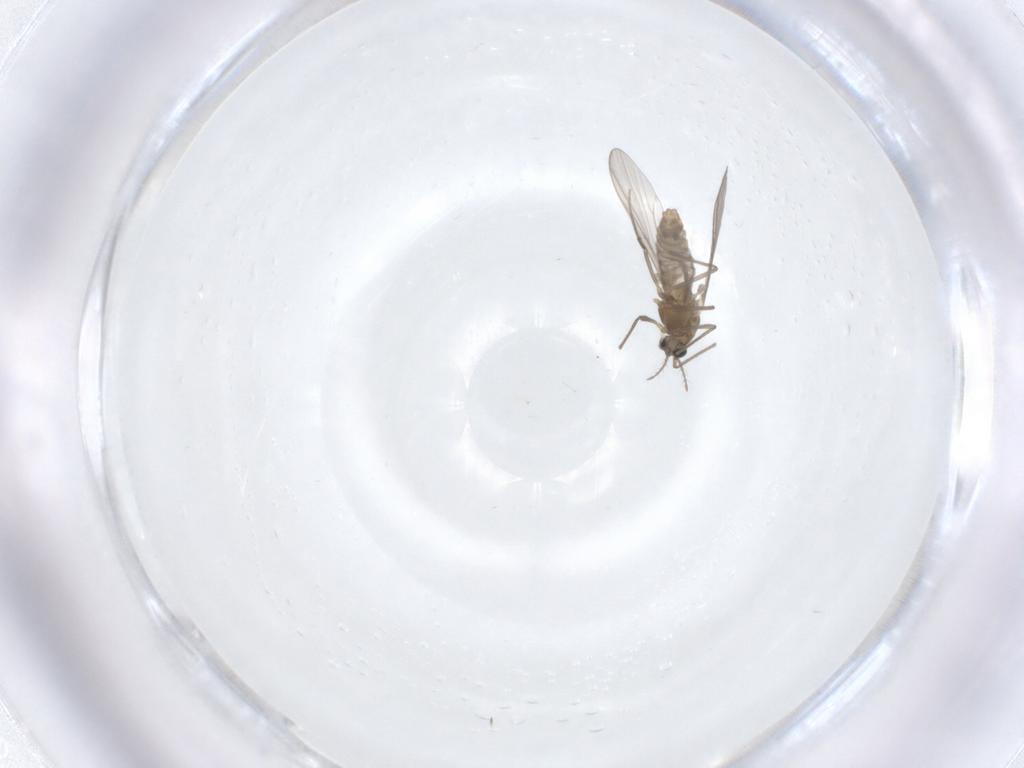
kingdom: Animalia
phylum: Arthropoda
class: Insecta
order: Diptera
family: Chironomidae
